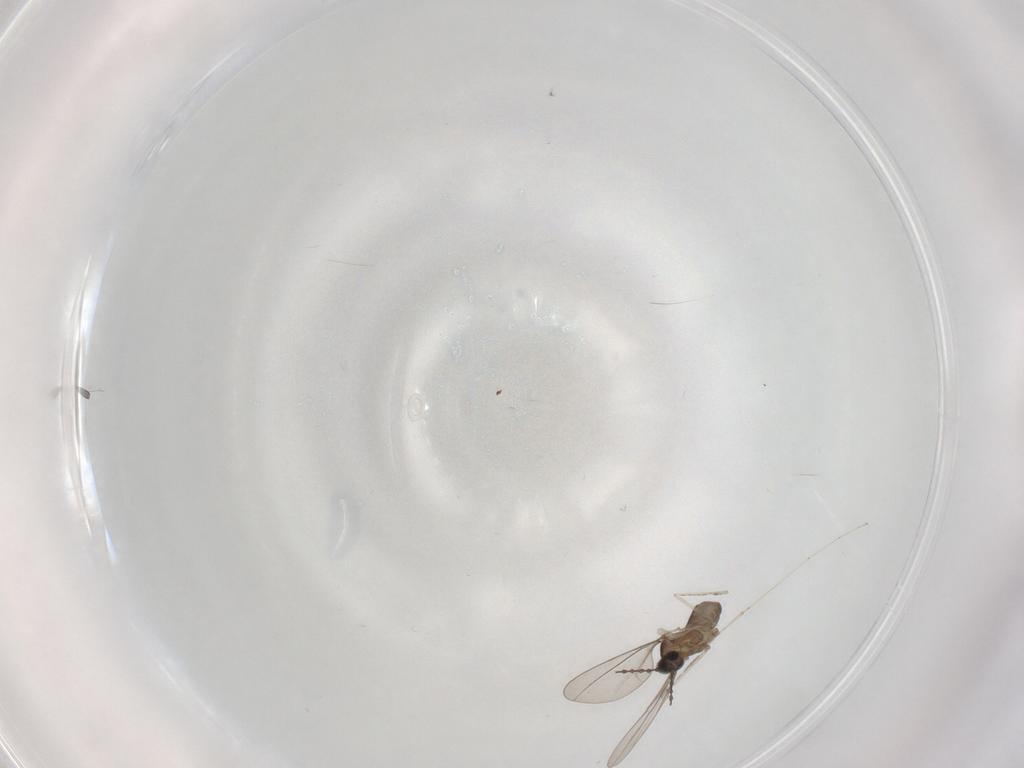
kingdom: Animalia
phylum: Arthropoda
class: Insecta
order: Diptera
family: Cecidomyiidae
